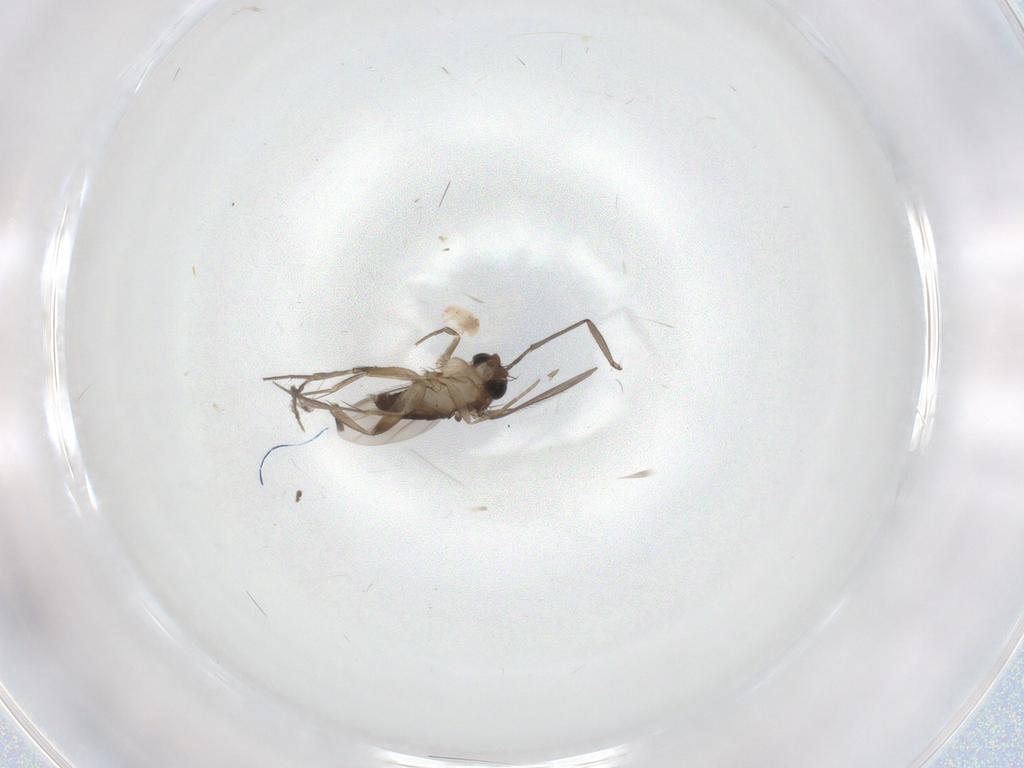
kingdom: Animalia
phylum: Arthropoda
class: Insecta
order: Diptera
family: Phoridae
